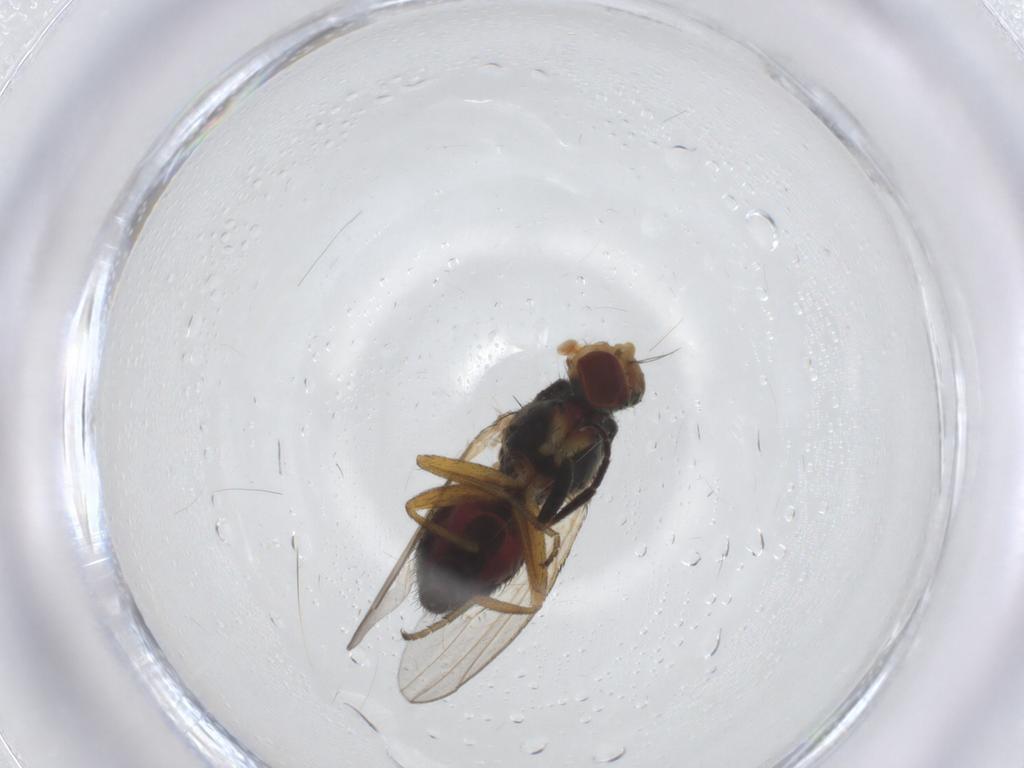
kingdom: Animalia
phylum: Arthropoda
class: Insecta
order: Diptera
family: Heleomyzidae
